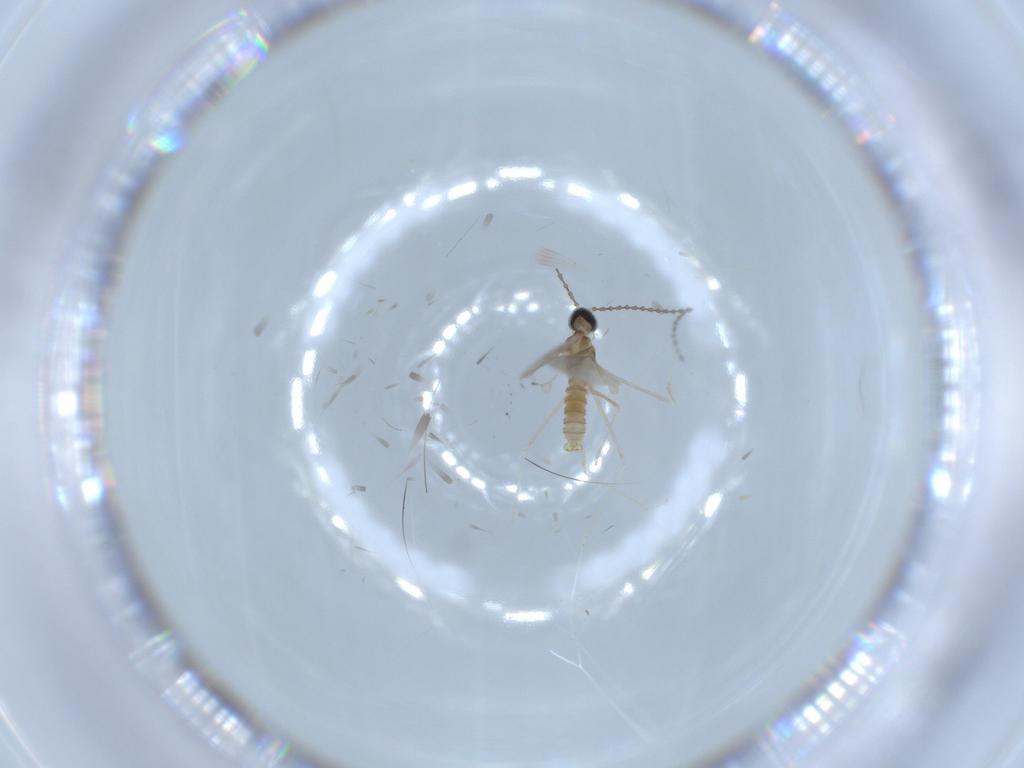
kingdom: Animalia
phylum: Arthropoda
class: Insecta
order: Diptera
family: Cecidomyiidae
